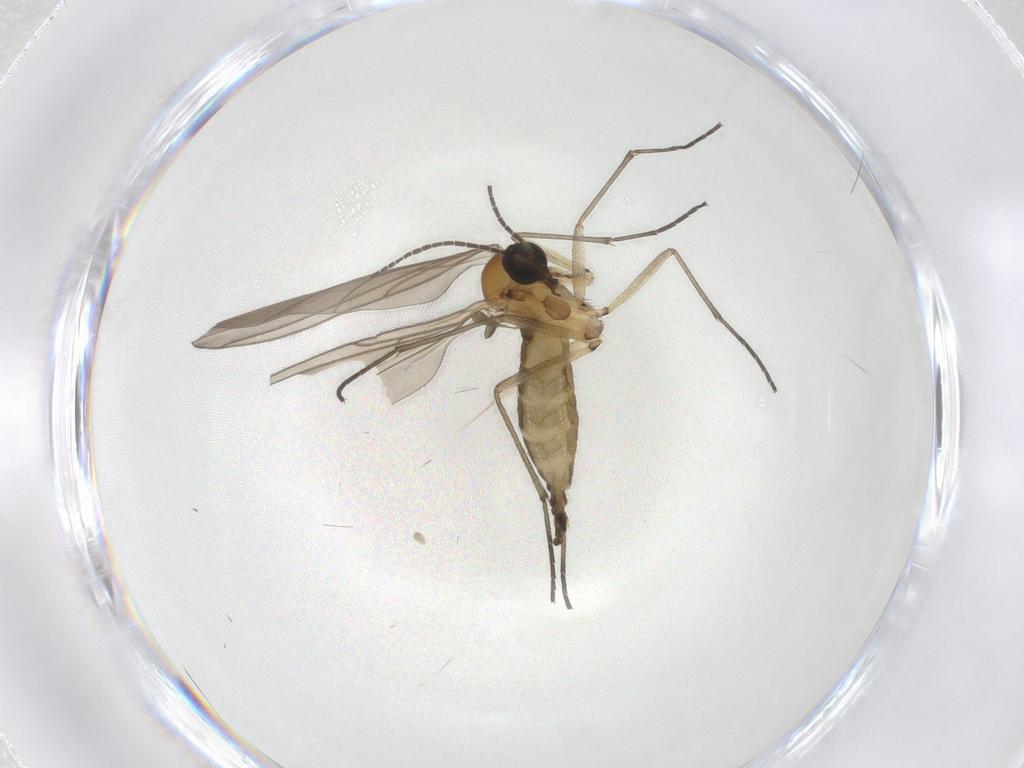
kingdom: Animalia
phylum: Arthropoda
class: Insecta
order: Diptera
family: Sciaridae
